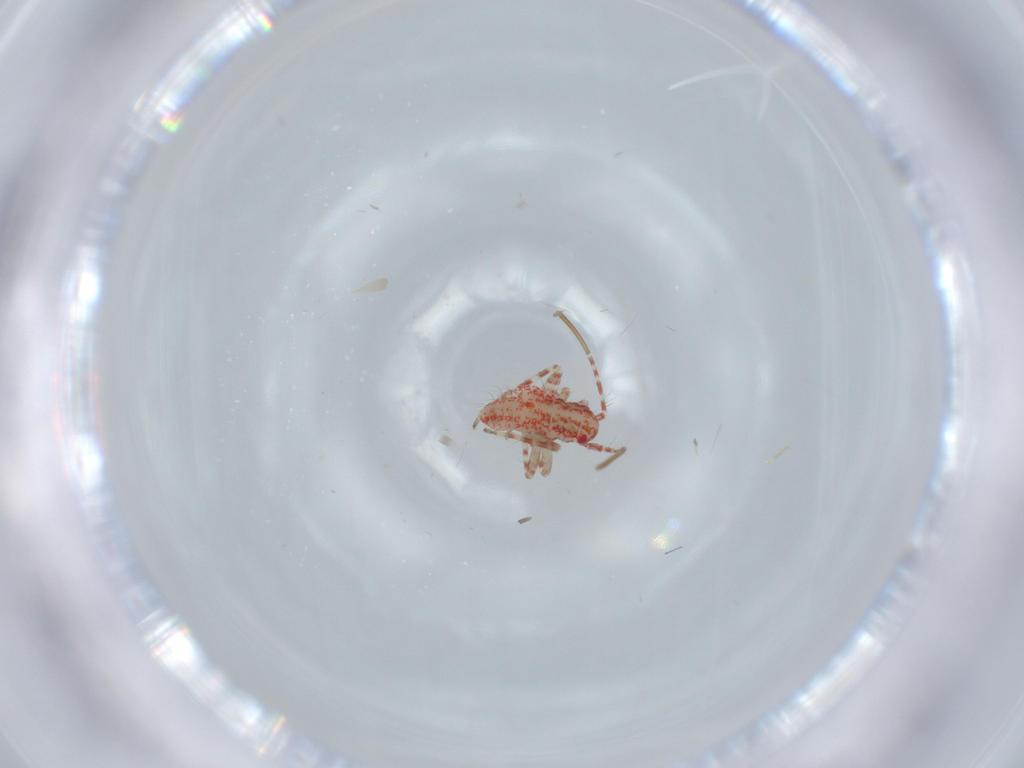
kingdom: Animalia
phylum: Arthropoda
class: Insecta
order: Hemiptera
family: Miridae
